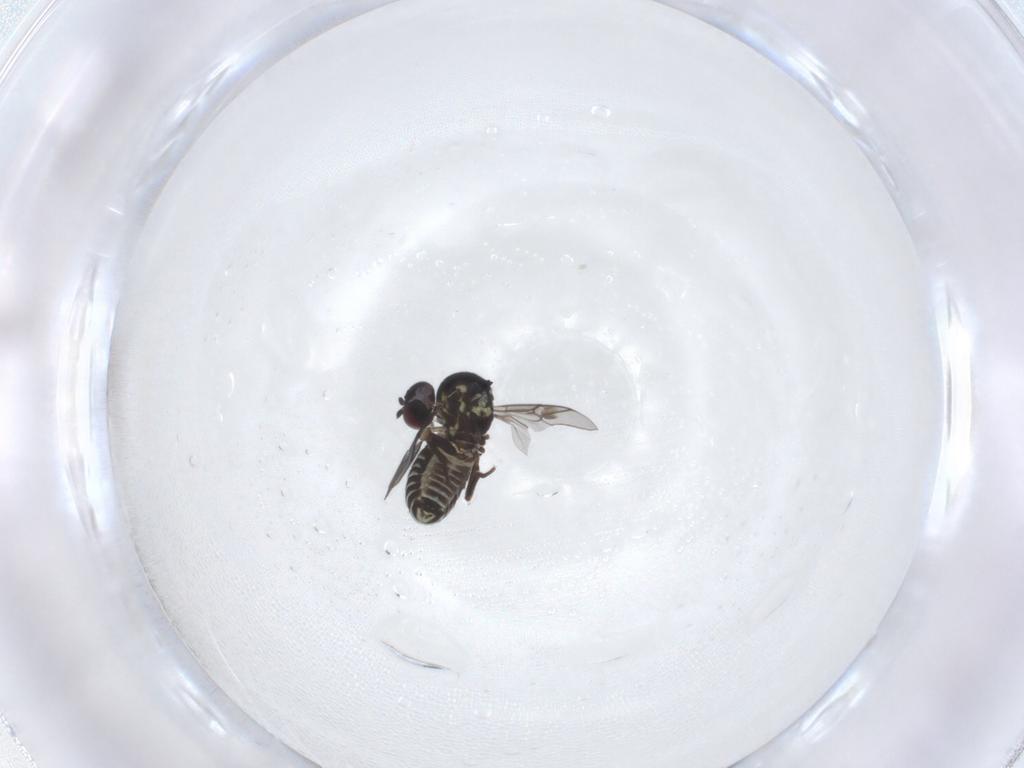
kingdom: Animalia
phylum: Arthropoda
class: Insecta
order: Diptera
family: Mythicomyiidae
